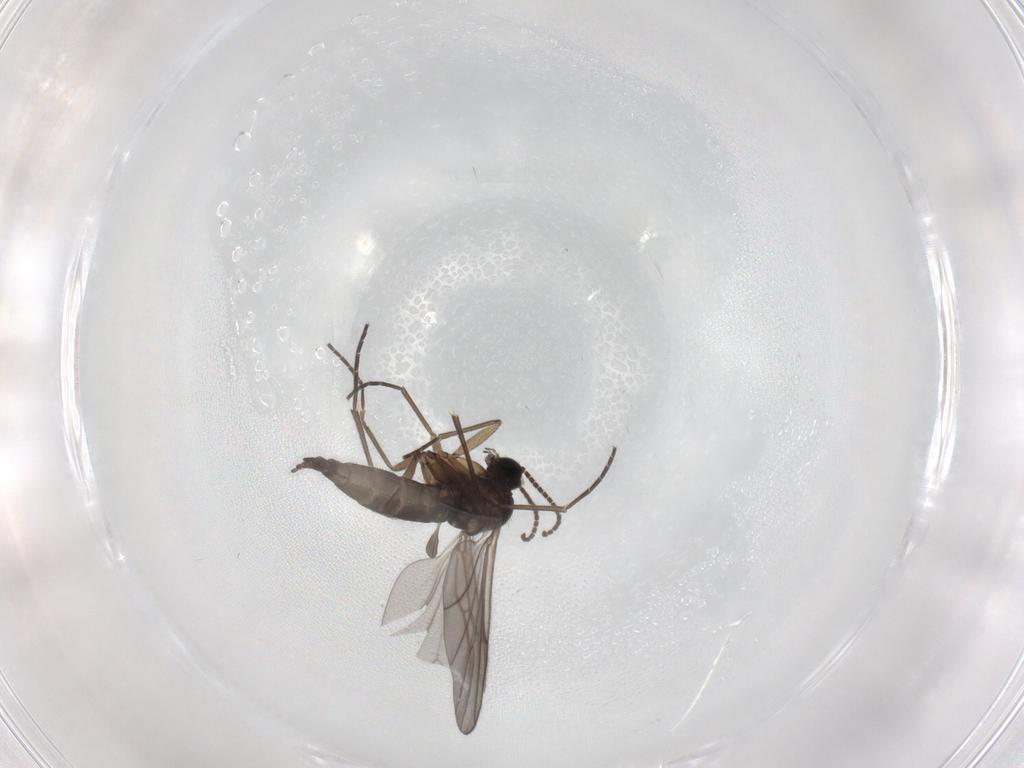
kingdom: Animalia
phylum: Arthropoda
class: Insecta
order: Diptera
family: Sciaridae
